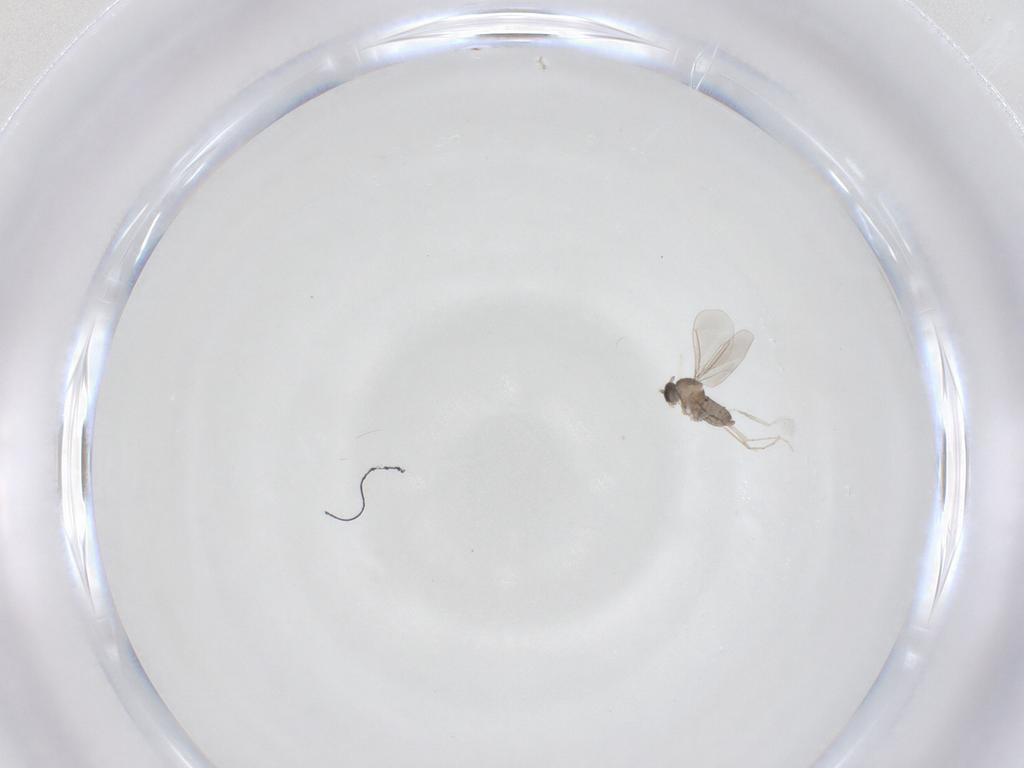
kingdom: Animalia
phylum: Arthropoda
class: Insecta
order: Diptera
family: Cecidomyiidae
